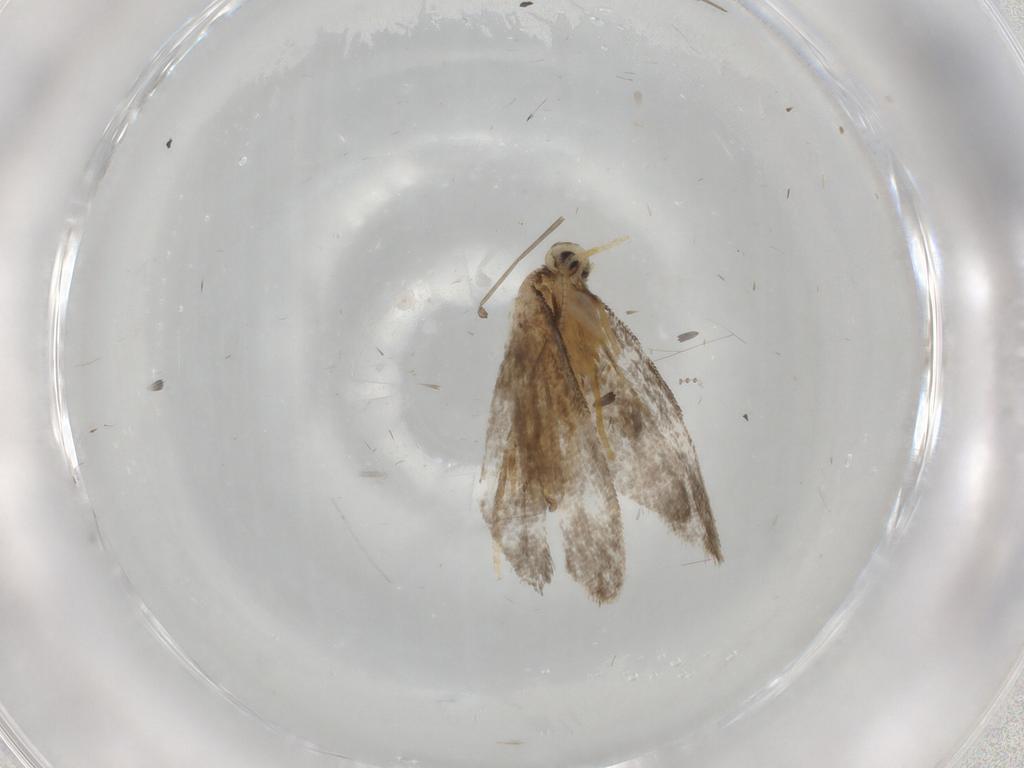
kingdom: Animalia
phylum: Arthropoda
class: Insecta
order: Lepidoptera
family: Psychidae
